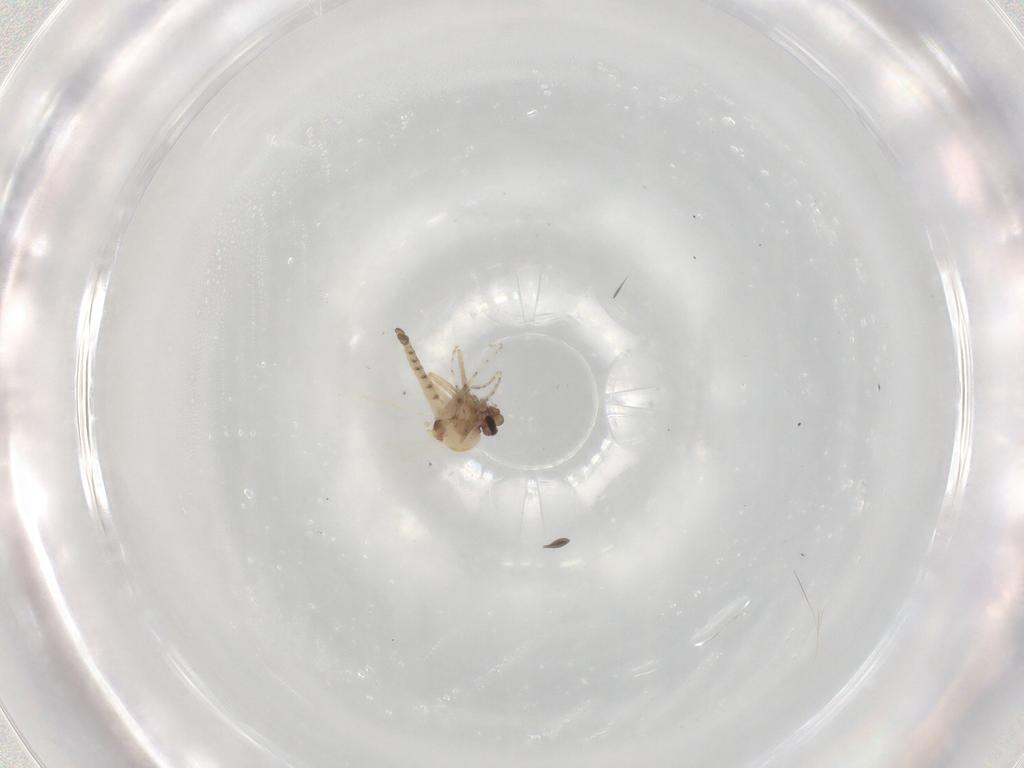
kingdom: Animalia
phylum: Arthropoda
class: Insecta
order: Diptera
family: Ceratopogonidae
